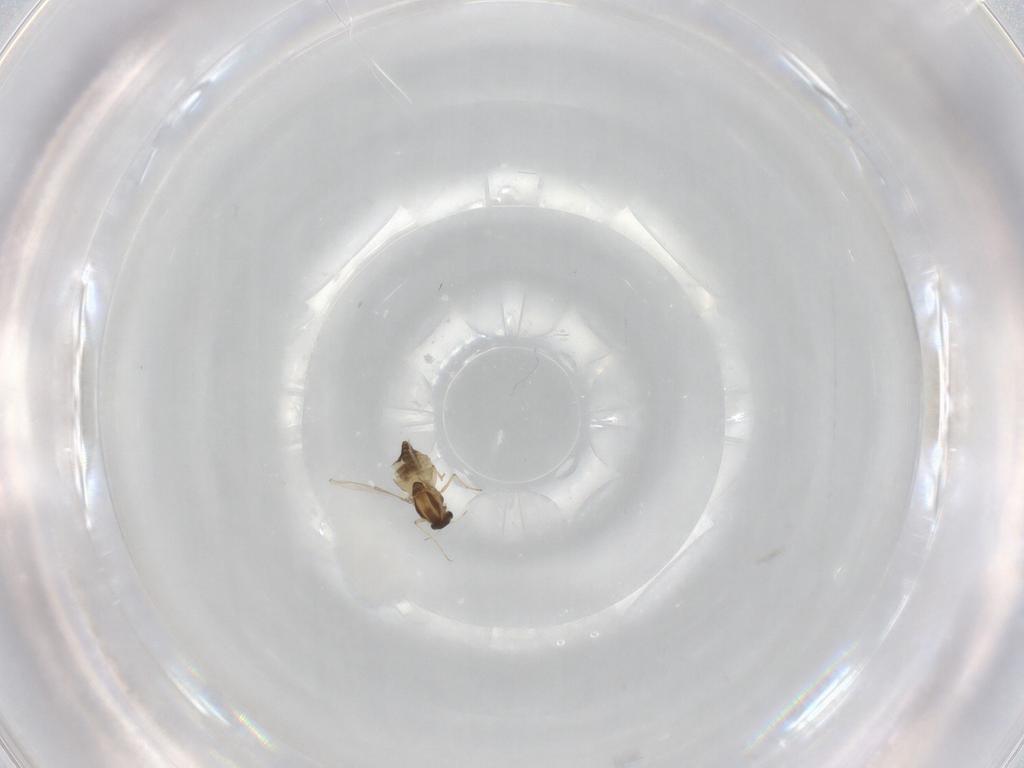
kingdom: Animalia
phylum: Arthropoda
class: Insecta
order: Diptera
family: Chironomidae
